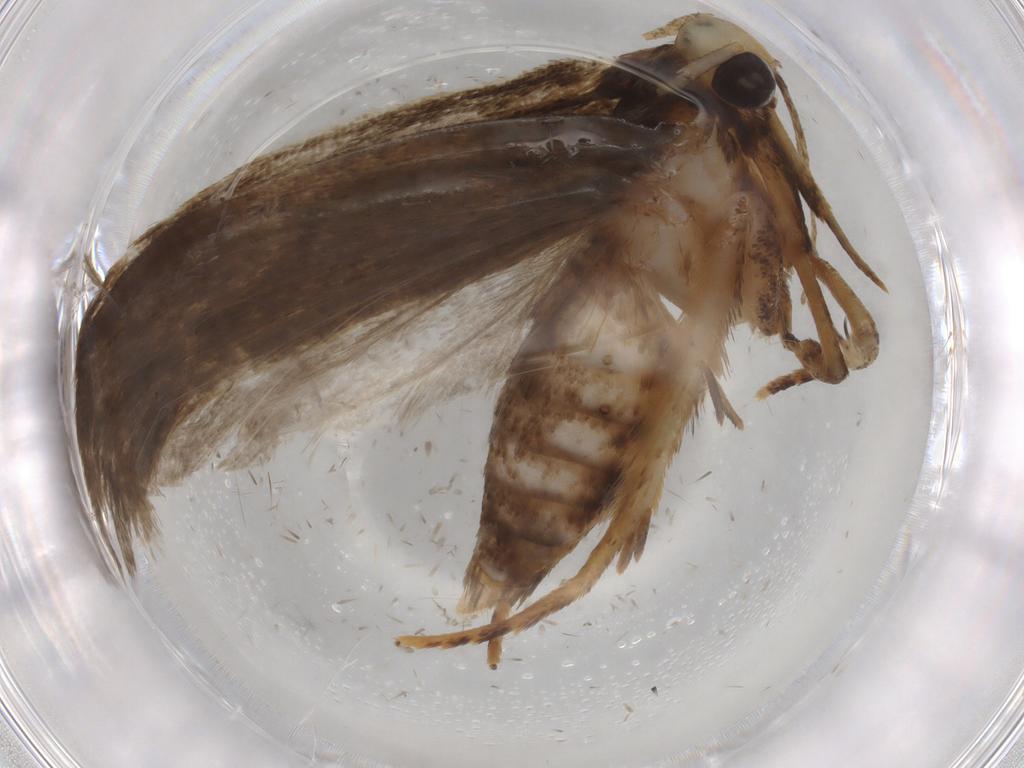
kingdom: Animalia
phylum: Arthropoda
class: Insecta
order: Lepidoptera
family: Autostichidae
